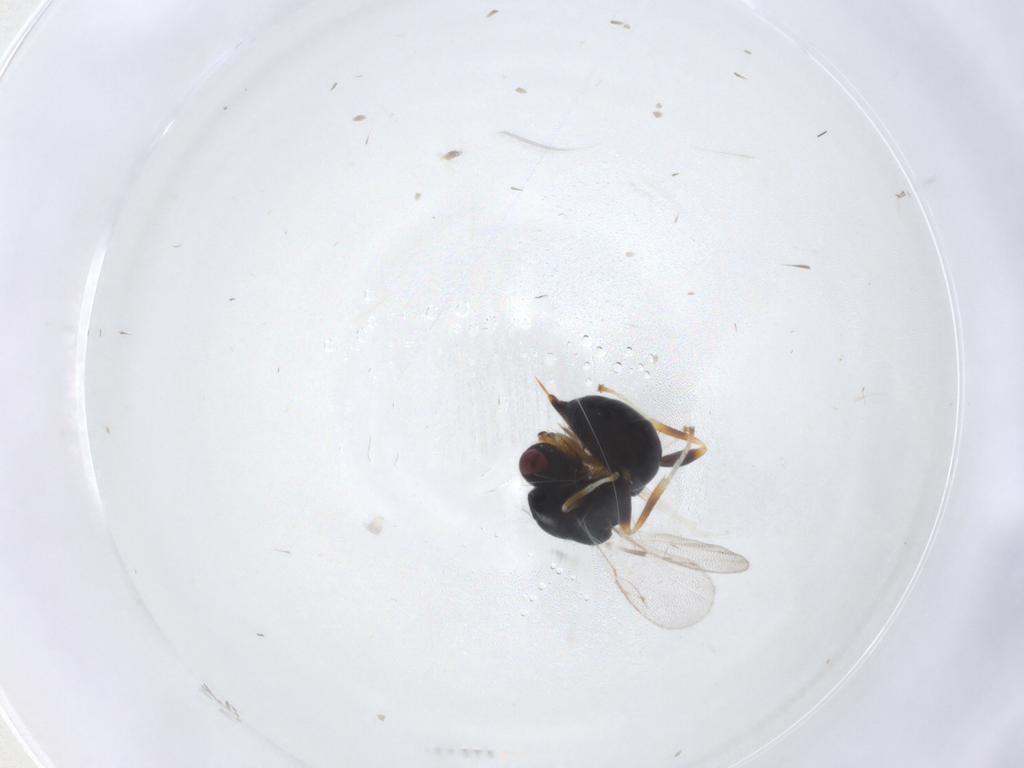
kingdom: Animalia
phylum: Arthropoda
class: Insecta
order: Hymenoptera
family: Eurytomidae
